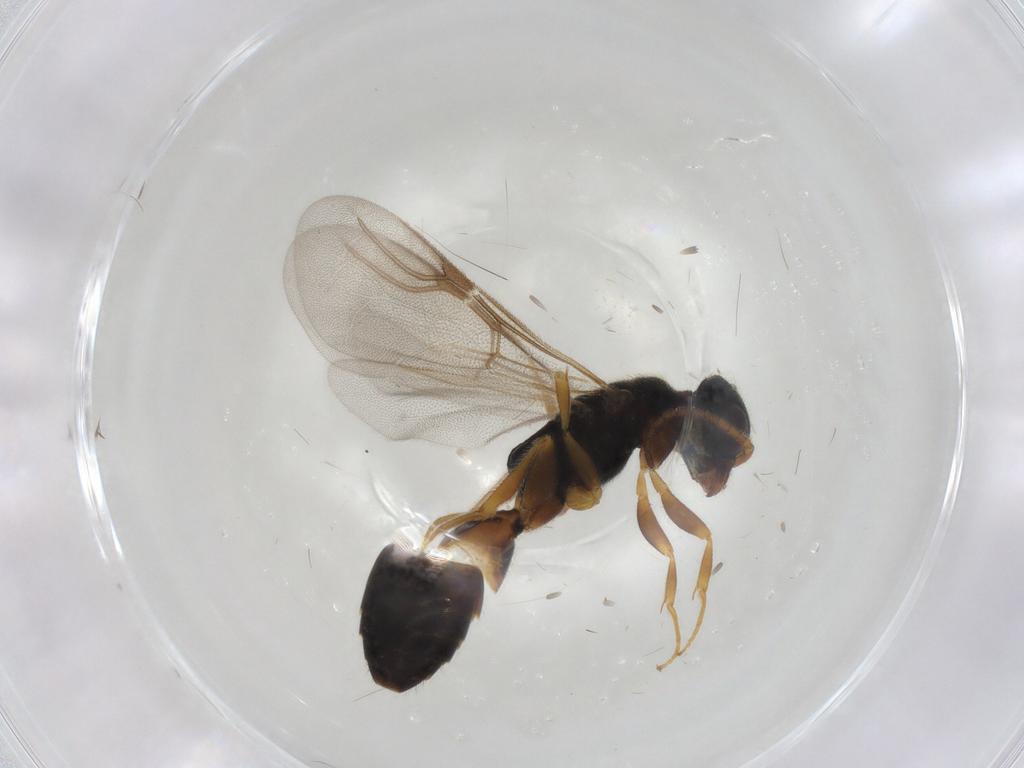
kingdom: Animalia
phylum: Arthropoda
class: Insecta
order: Hymenoptera
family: Bethylidae
